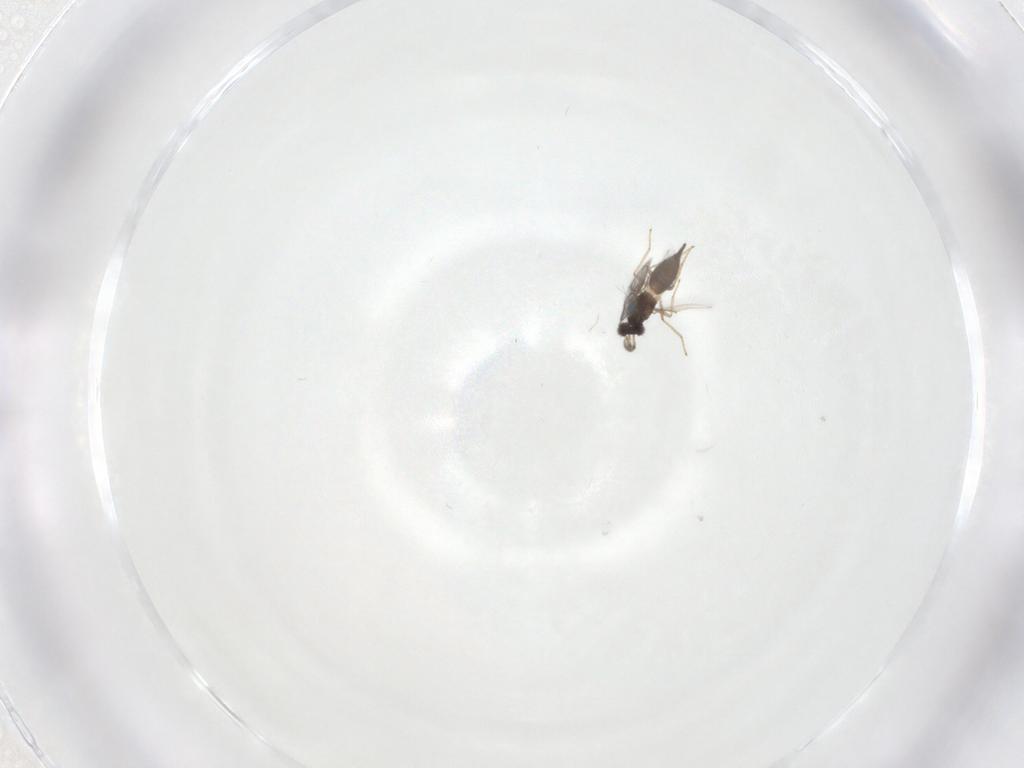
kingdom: Animalia
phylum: Arthropoda
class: Insecta
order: Hymenoptera
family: Eulophidae
